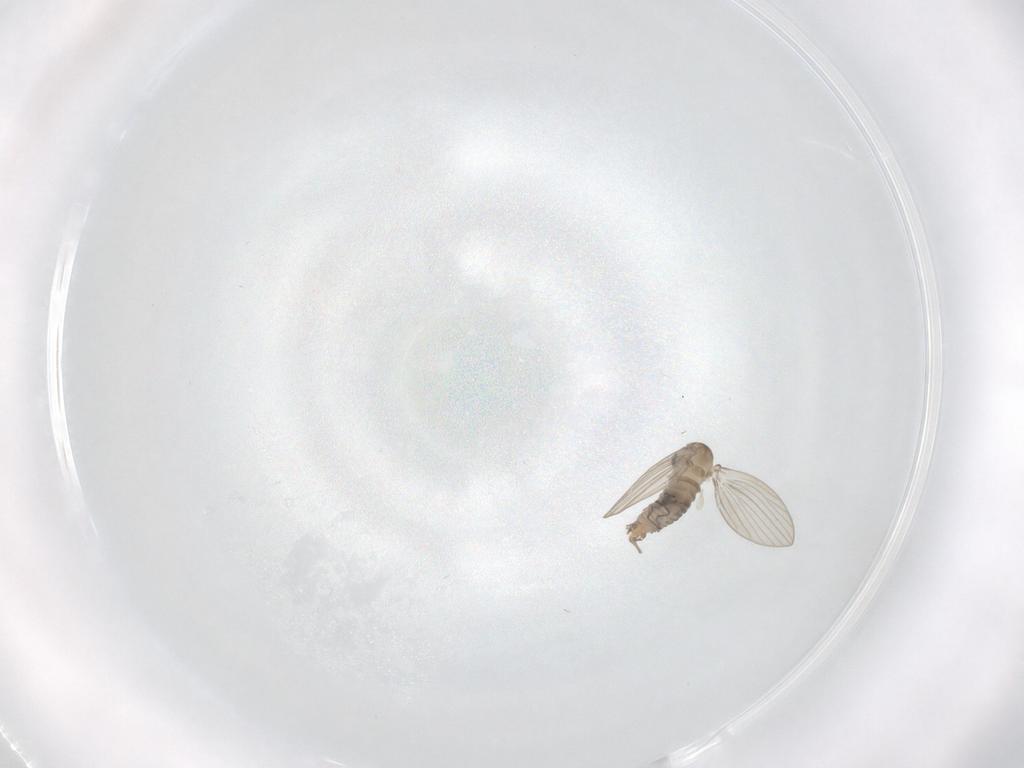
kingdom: Animalia
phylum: Arthropoda
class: Insecta
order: Diptera
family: Psychodidae
